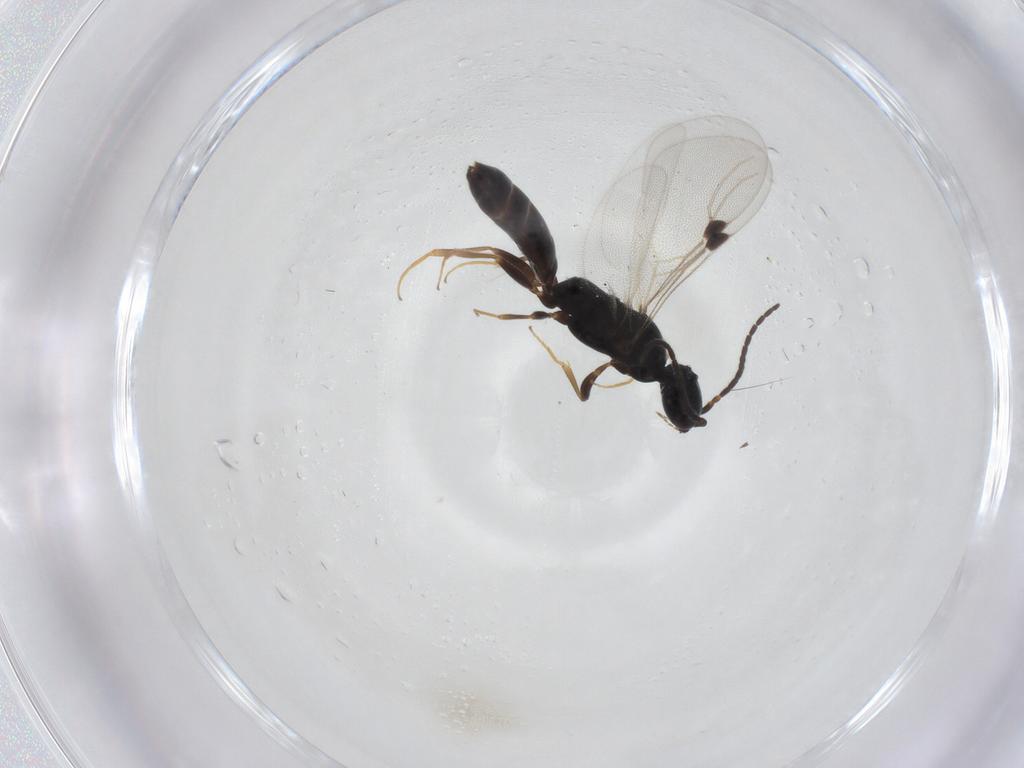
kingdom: Animalia
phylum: Arthropoda
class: Insecta
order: Hymenoptera
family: Bethylidae
